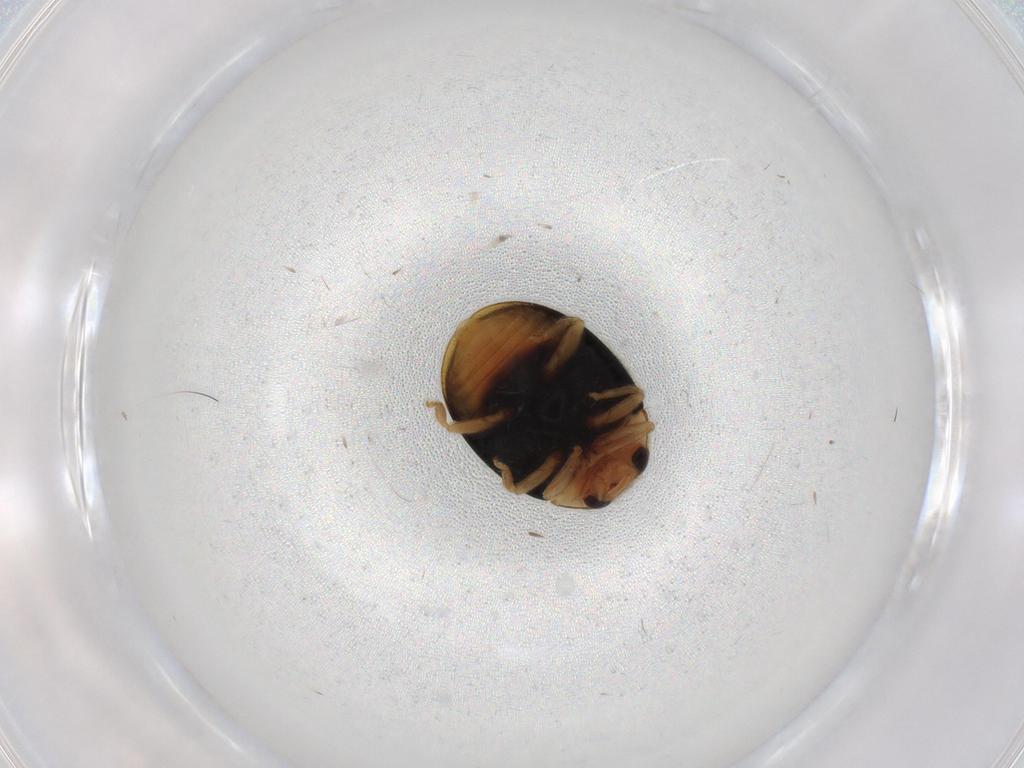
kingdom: Animalia
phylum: Arthropoda
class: Insecta
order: Coleoptera
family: Coccinellidae
